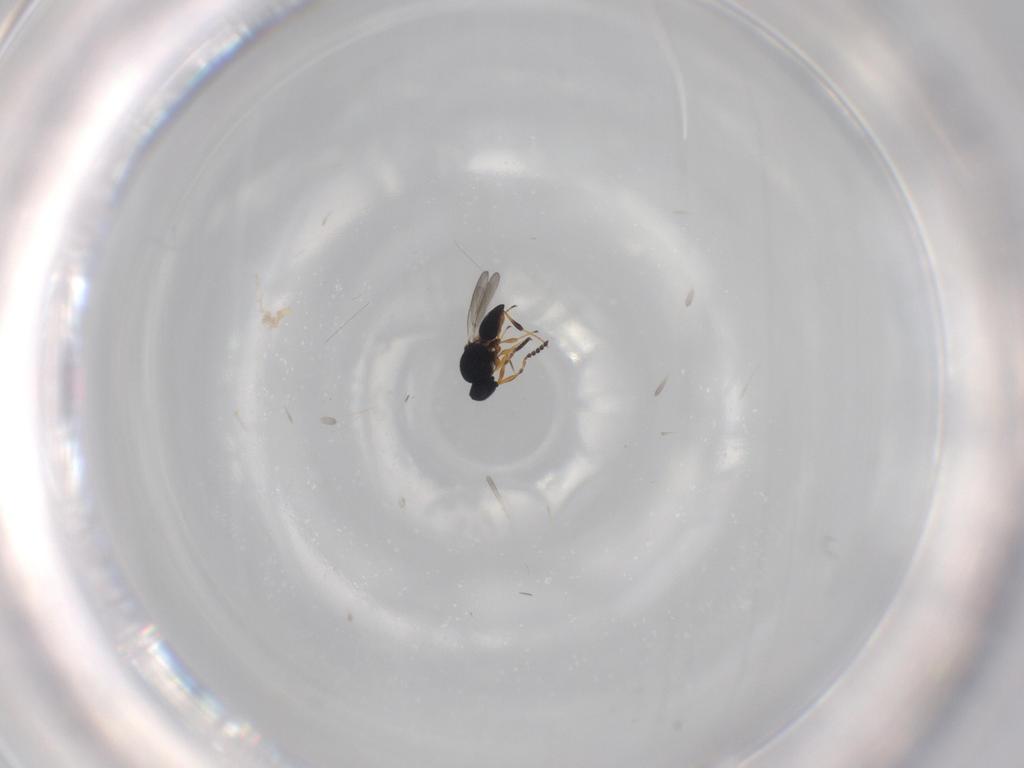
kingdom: Animalia
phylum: Arthropoda
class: Insecta
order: Hymenoptera
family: Platygastridae
